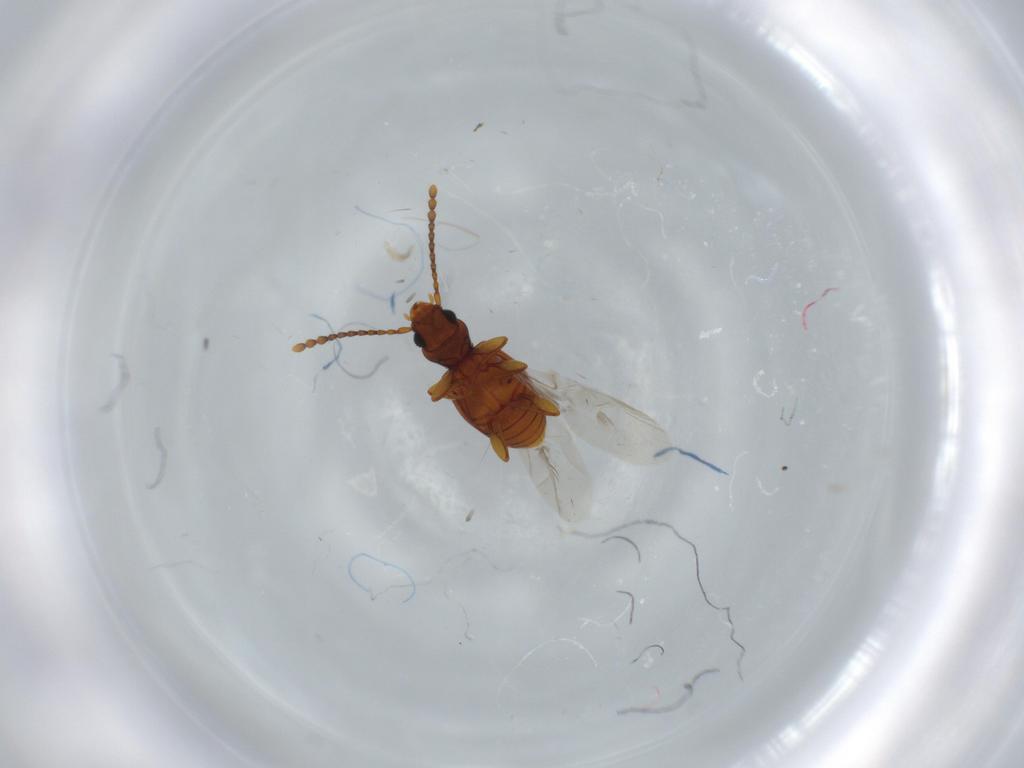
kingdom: Animalia
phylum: Arthropoda
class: Insecta
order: Coleoptera
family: Laemophloeidae
